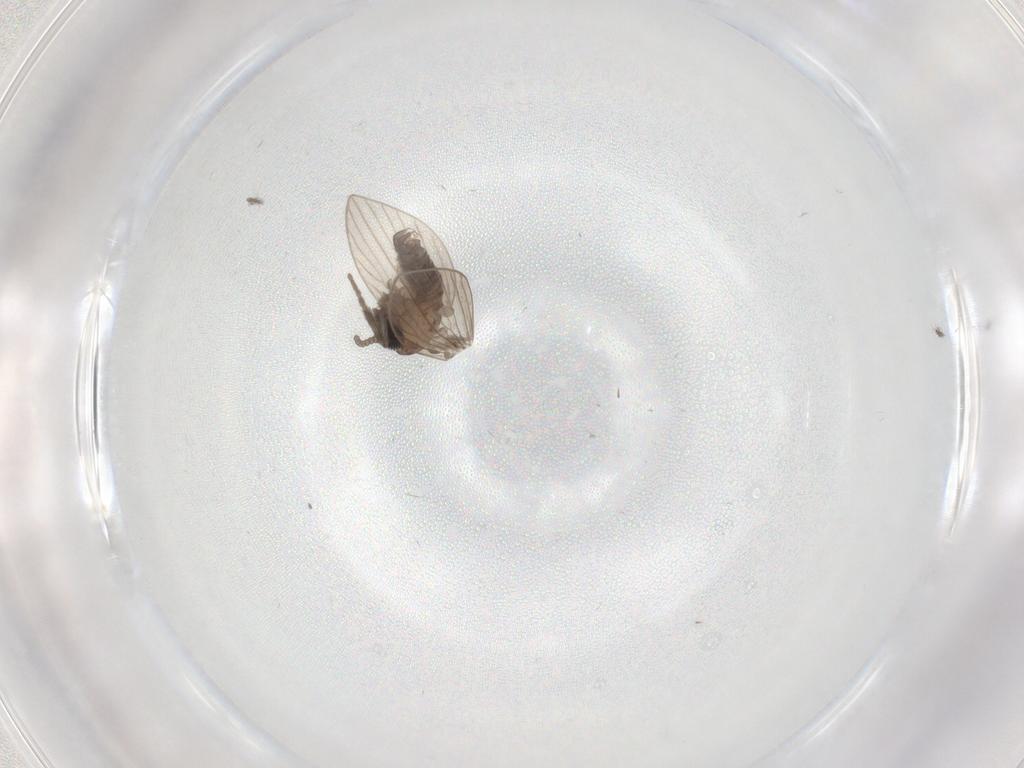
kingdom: Animalia
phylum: Arthropoda
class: Insecta
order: Diptera
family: Psychodidae
